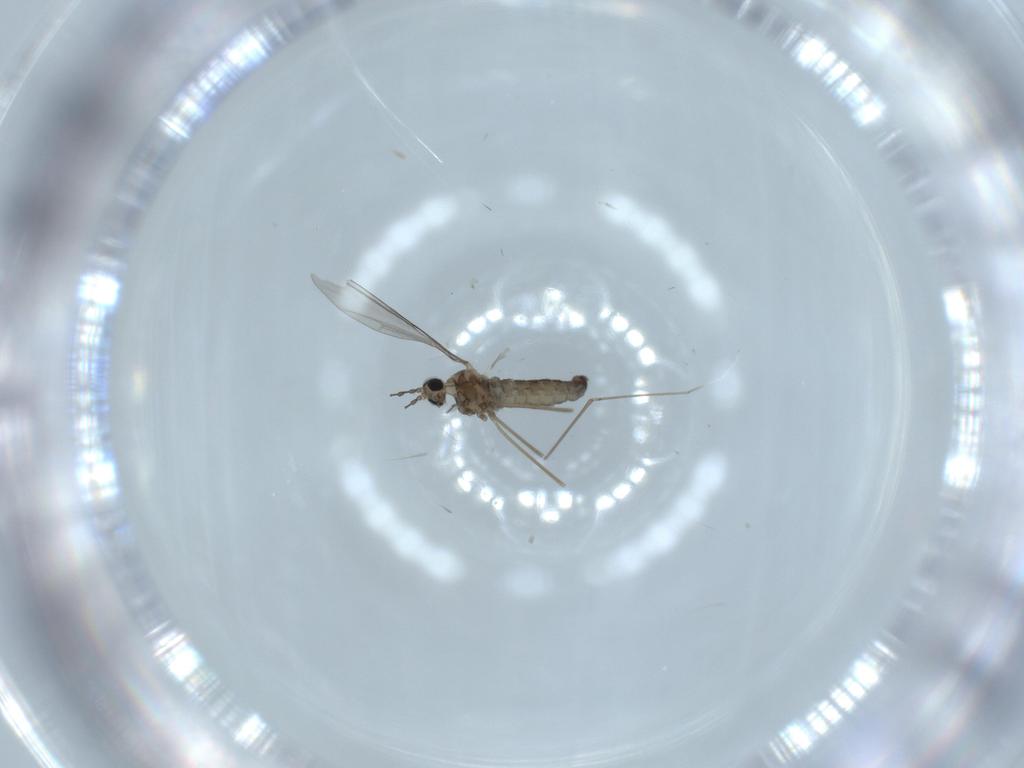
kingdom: Animalia
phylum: Arthropoda
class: Insecta
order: Diptera
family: Cecidomyiidae
